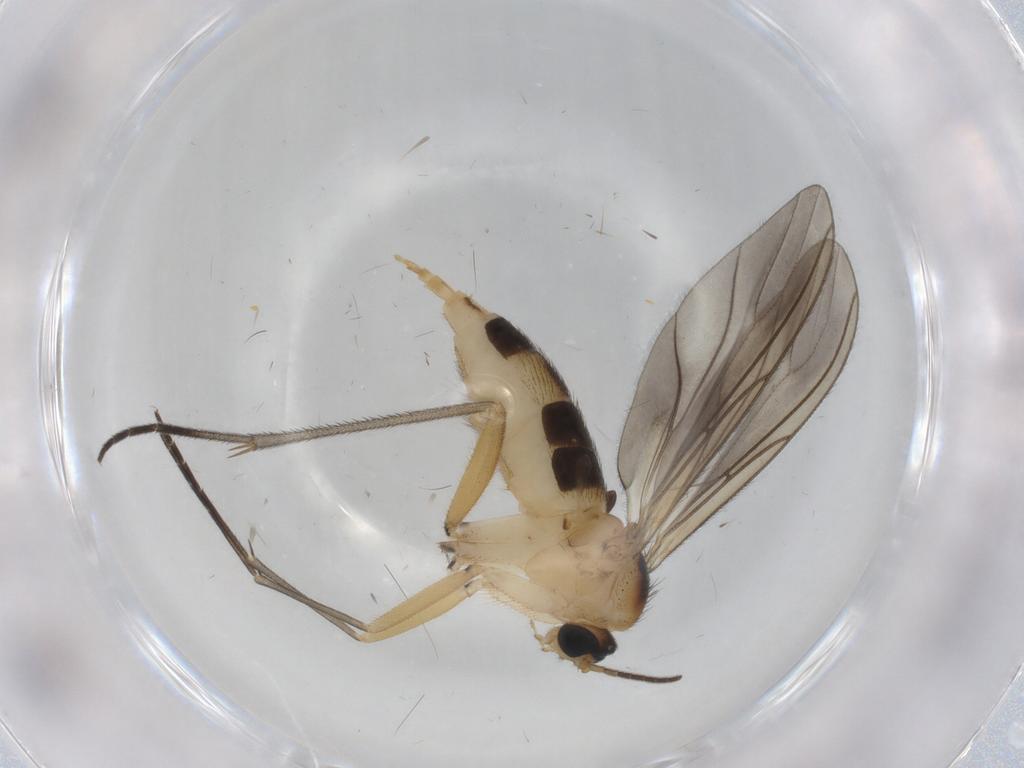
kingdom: Animalia
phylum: Arthropoda
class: Insecta
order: Diptera
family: Sciaridae
